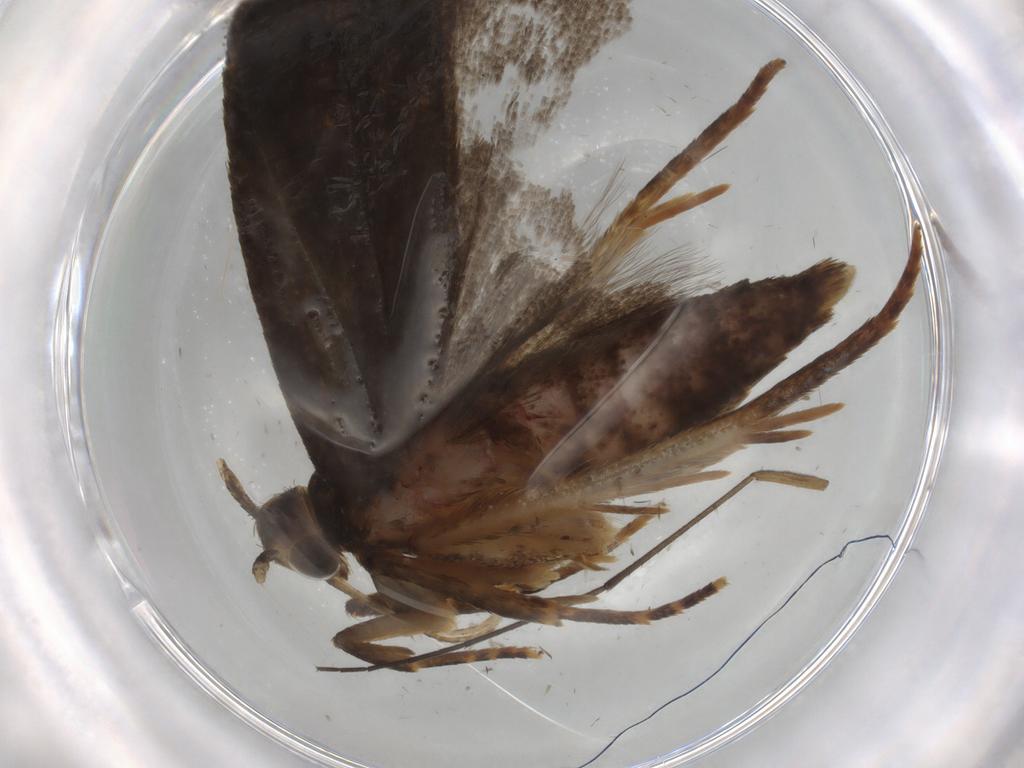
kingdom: Animalia
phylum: Arthropoda
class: Insecta
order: Lepidoptera
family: Autostichidae
